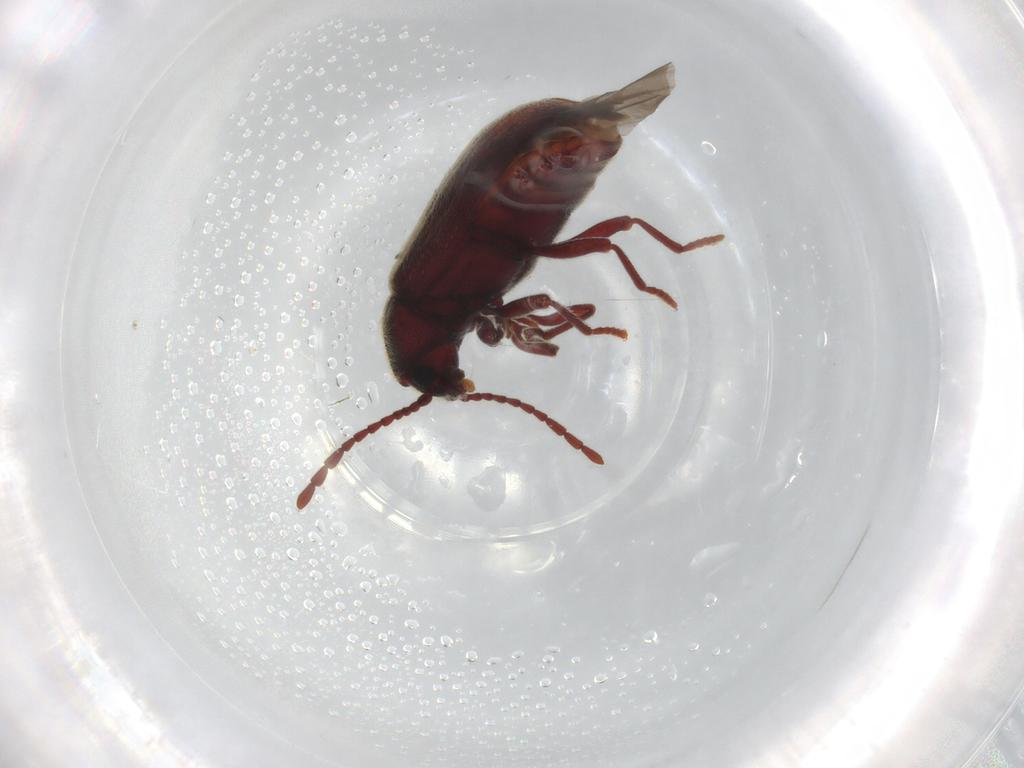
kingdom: Animalia
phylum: Arthropoda
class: Insecta
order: Coleoptera
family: Ptinidae
